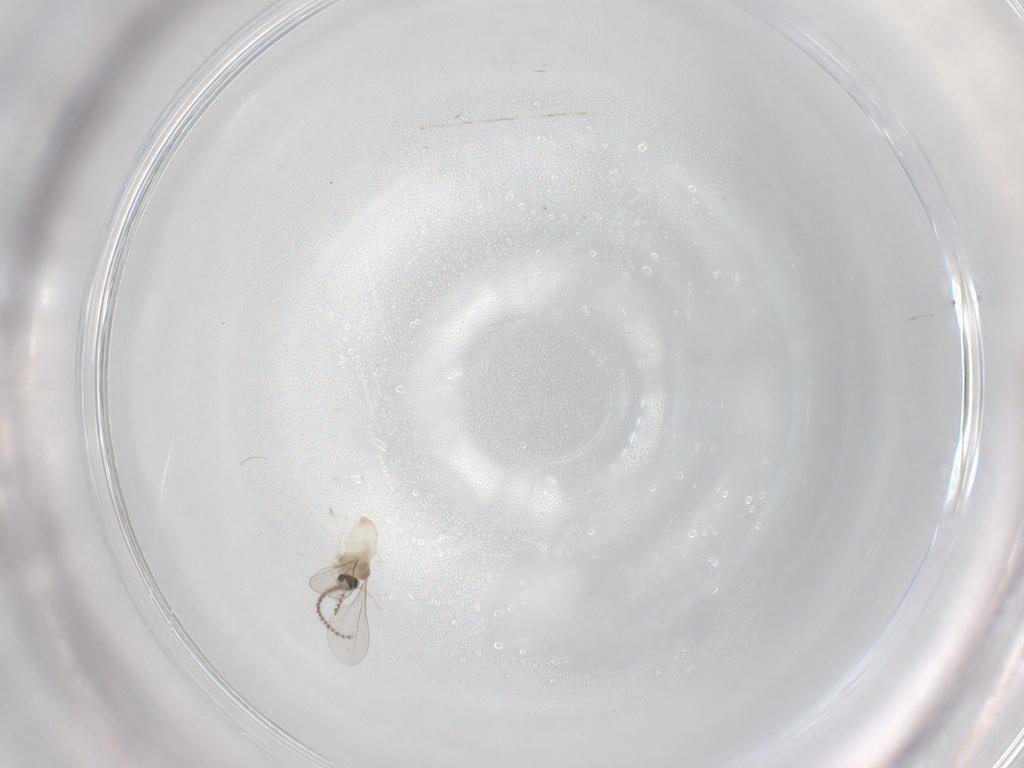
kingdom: Animalia
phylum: Arthropoda
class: Insecta
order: Diptera
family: Cecidomyiidae
